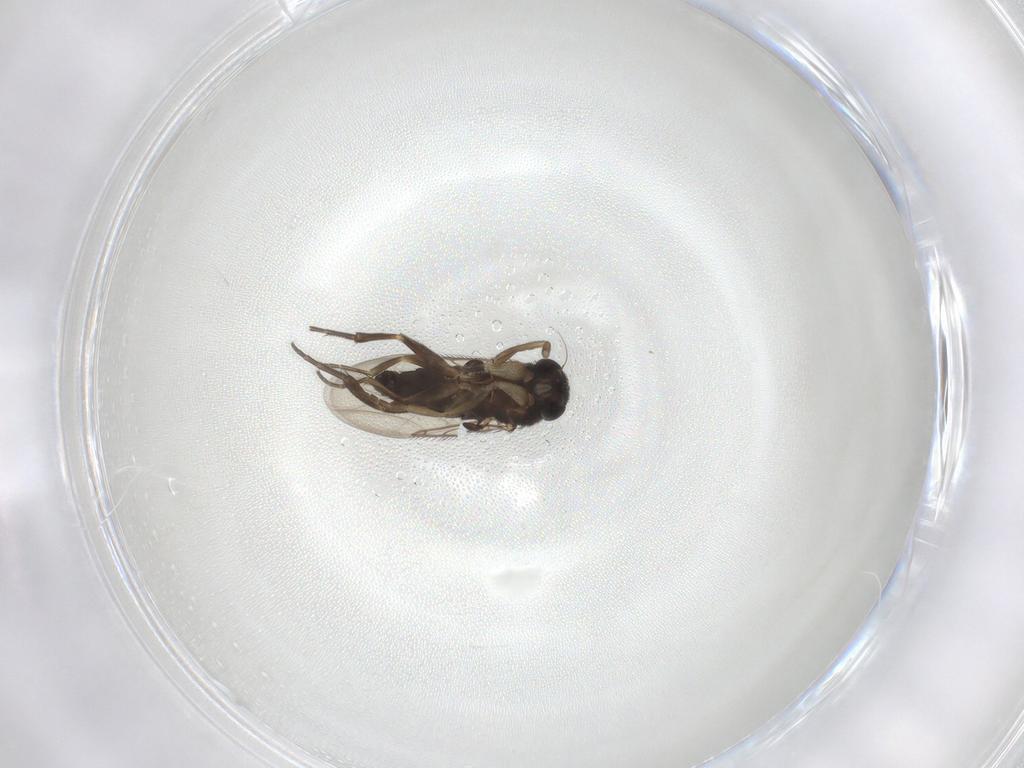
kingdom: Animalia
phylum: Arthropoda
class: Insecta
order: Diptera
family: Phoridae
